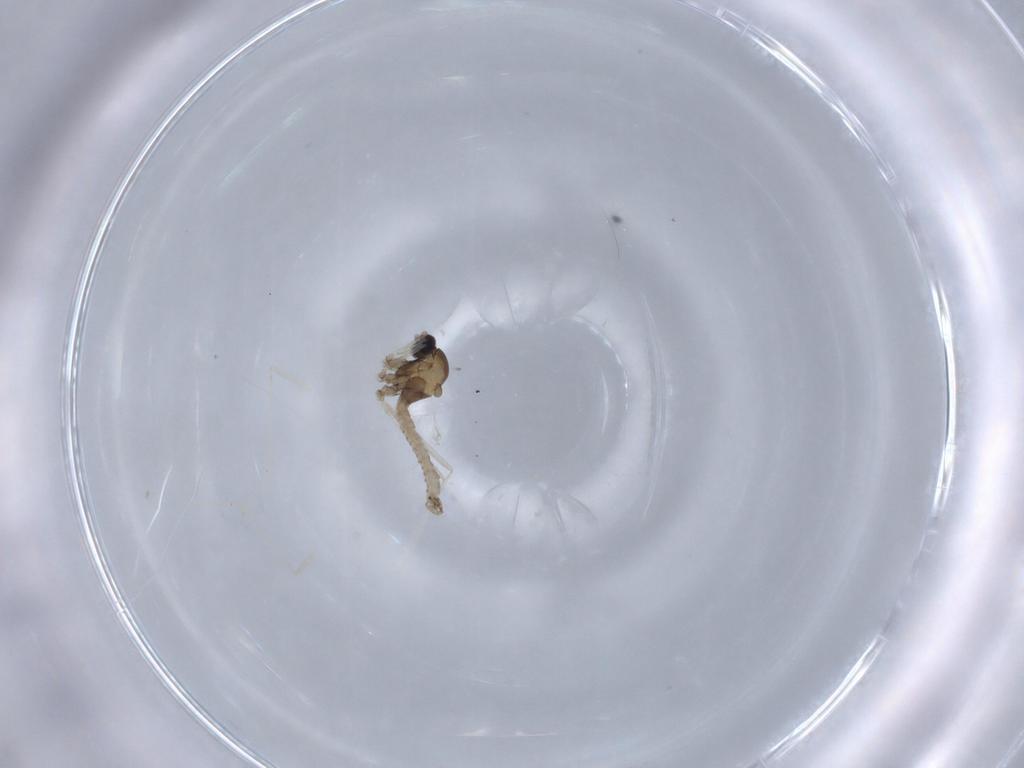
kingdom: Animalia
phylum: Arthropoda
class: Insecta
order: Diptera
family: Cecidomyiidae
